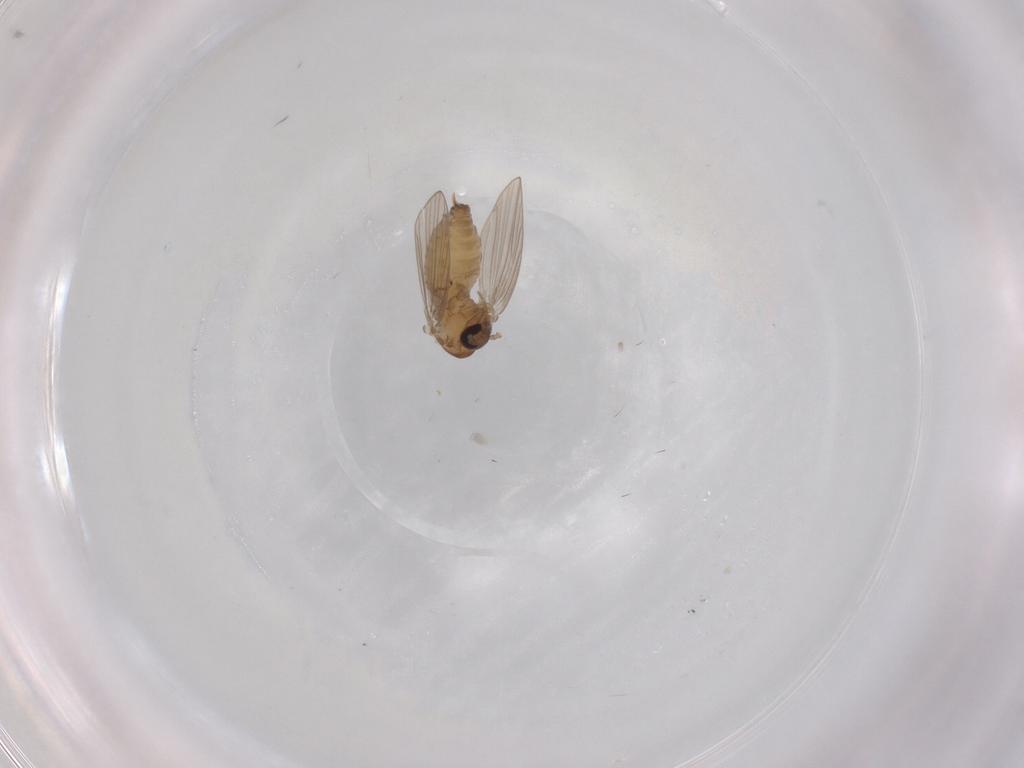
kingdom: Animalia
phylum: Arthropoda
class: Insecta
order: Diptera
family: Psychodidae
